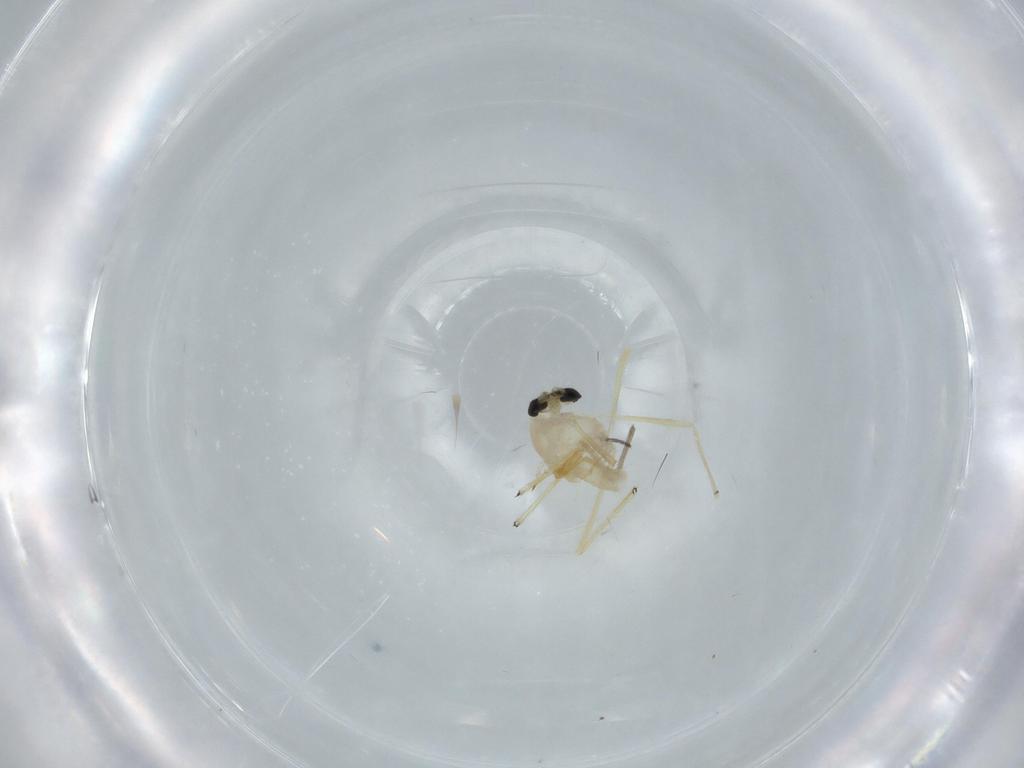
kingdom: Animalia
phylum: Arthropoda
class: Insecta
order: Diptera
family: Chironomidae
